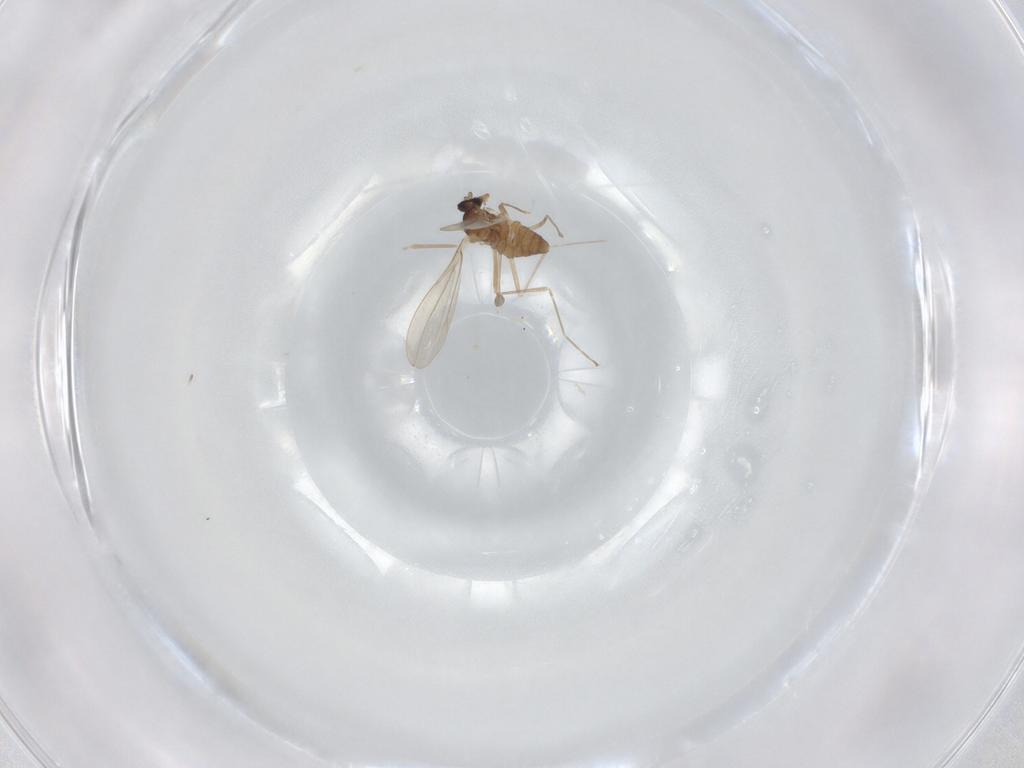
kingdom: Animalia
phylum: Arthropoda
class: Insecta
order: Diptera
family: Cecidomyiidae
